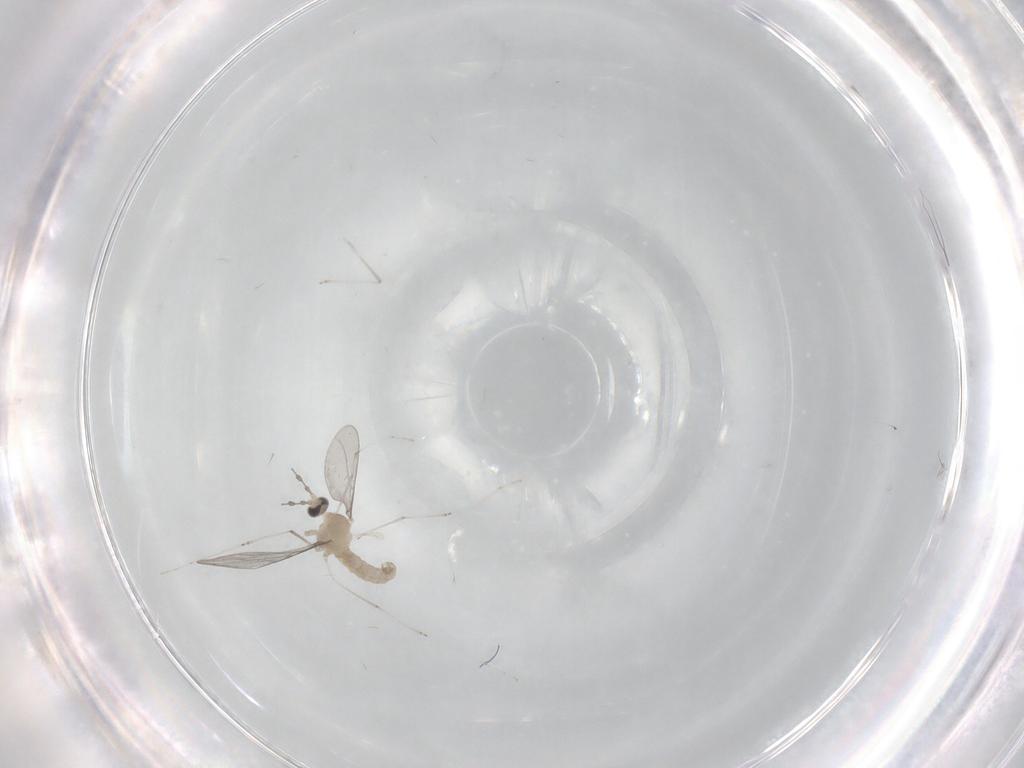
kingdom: Animalia
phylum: Arthropoda
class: Insecta
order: Diptera
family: Cecidomyiidae
